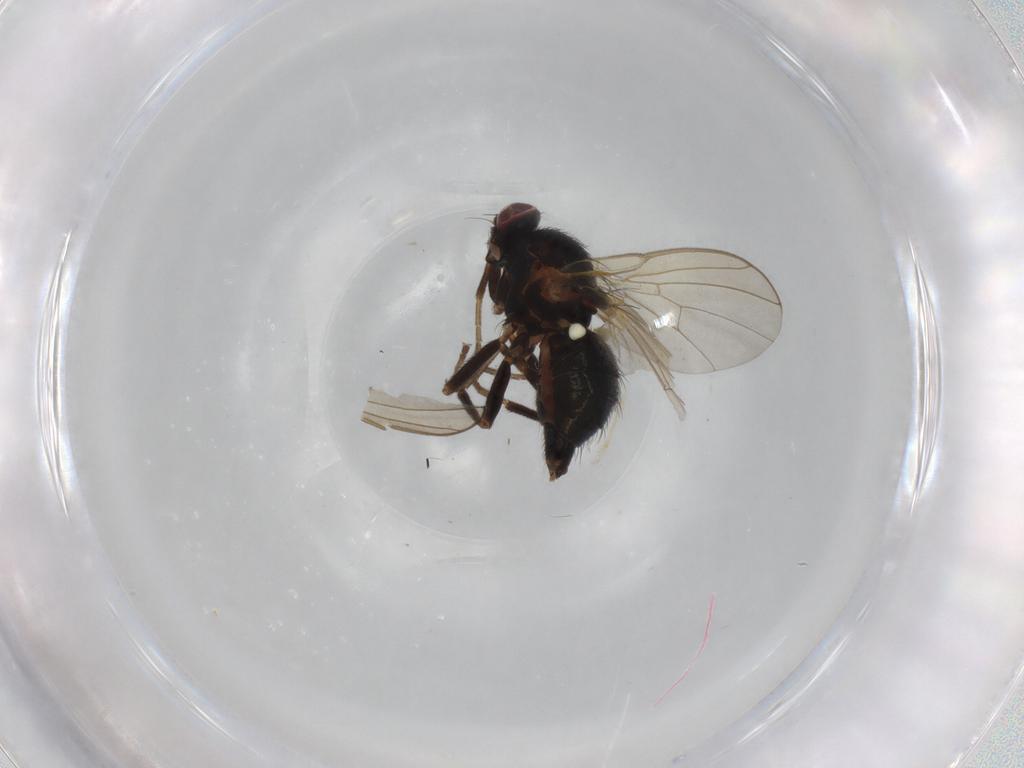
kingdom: Animalia
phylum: Arthropoda
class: Insecta
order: Diptera
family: Agromyzidae
